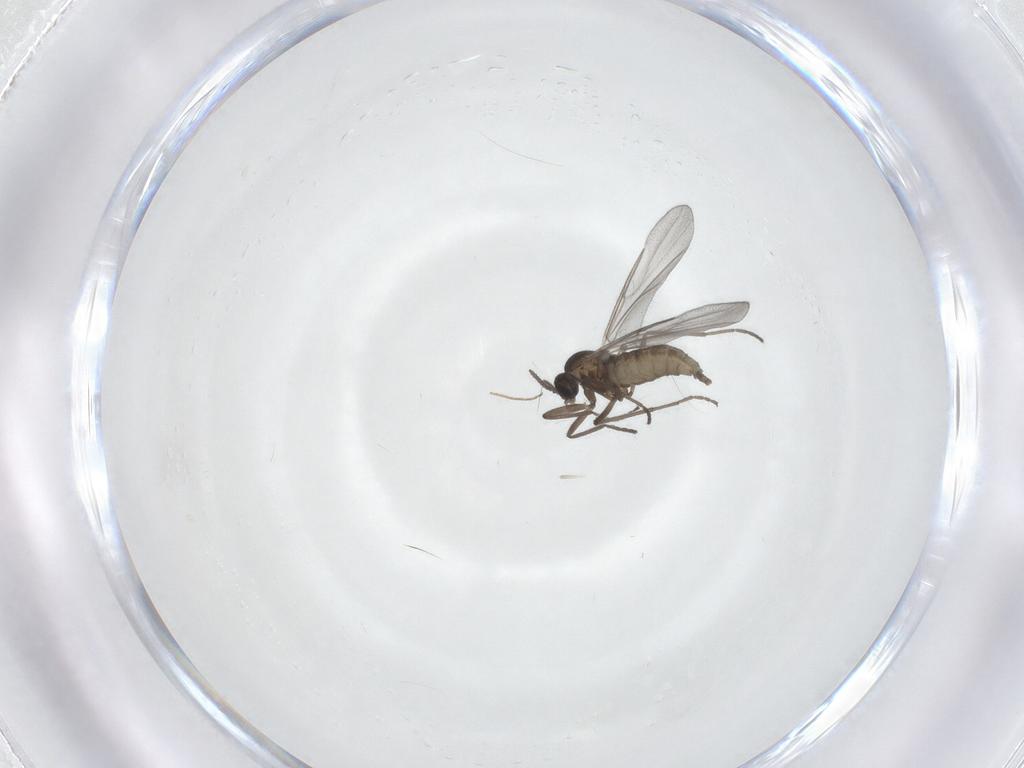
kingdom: Animalia
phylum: Arthropoda
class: Insecta
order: Diptera
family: Cecidomyiidae
